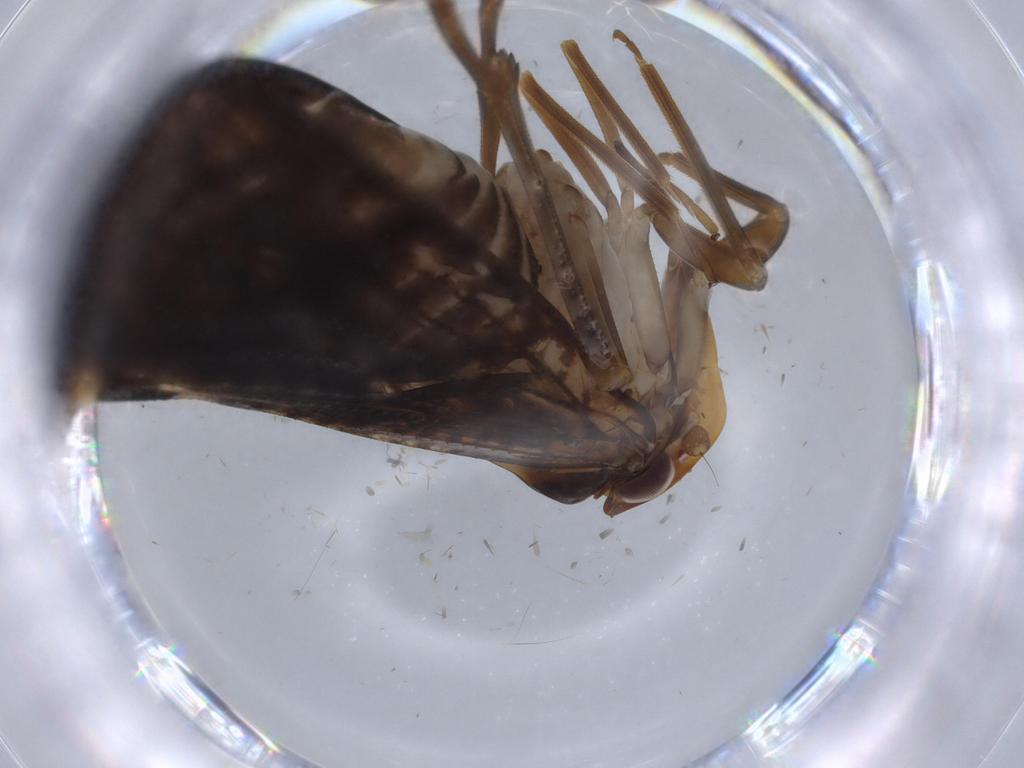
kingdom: Animalia
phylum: Arthropoda
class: Insecta
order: Hemiptera
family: Cixiidae
